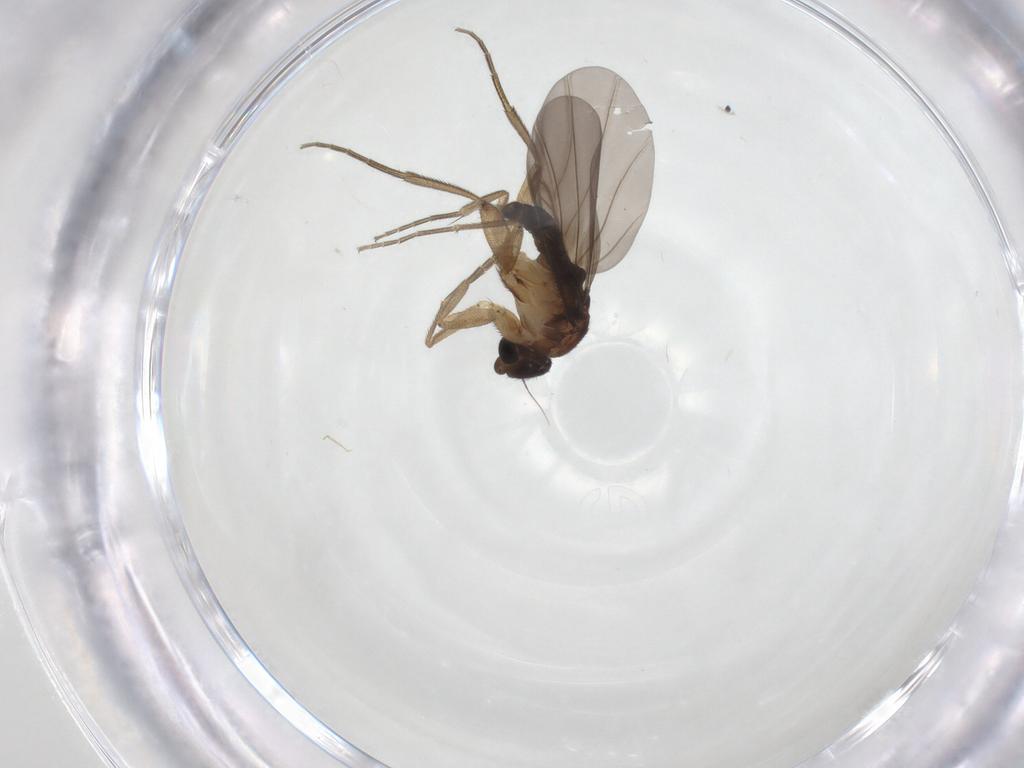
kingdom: Animalia
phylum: Arthropoda
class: Insecta
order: Diptera
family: Phoridae
